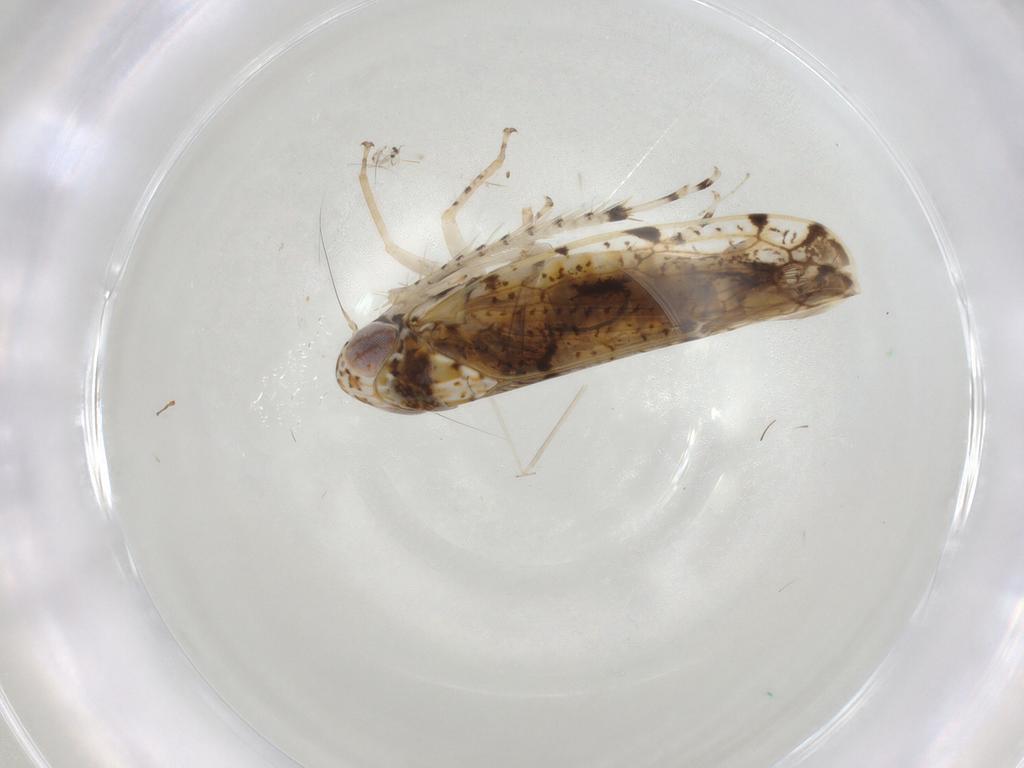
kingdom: Animalia
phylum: Arthropoda
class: Insecta
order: Hemiptera
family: Cicadellidae
